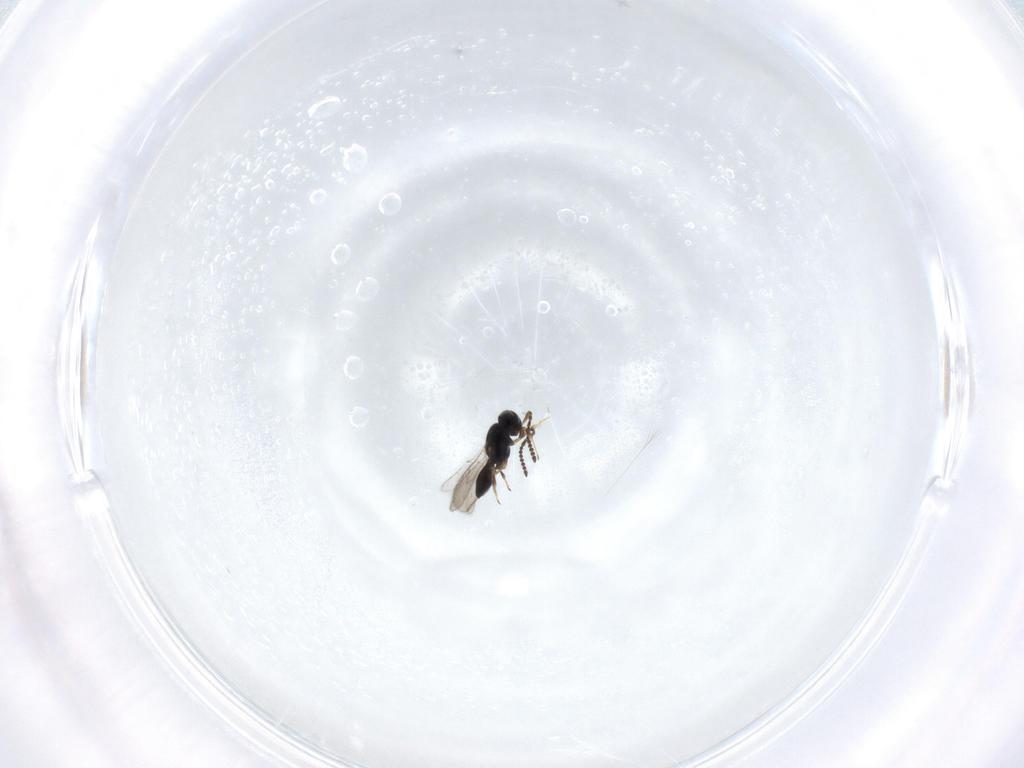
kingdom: Animalia
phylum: Arthropoda
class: Insecta
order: Hymenoptera
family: Scelionidae
